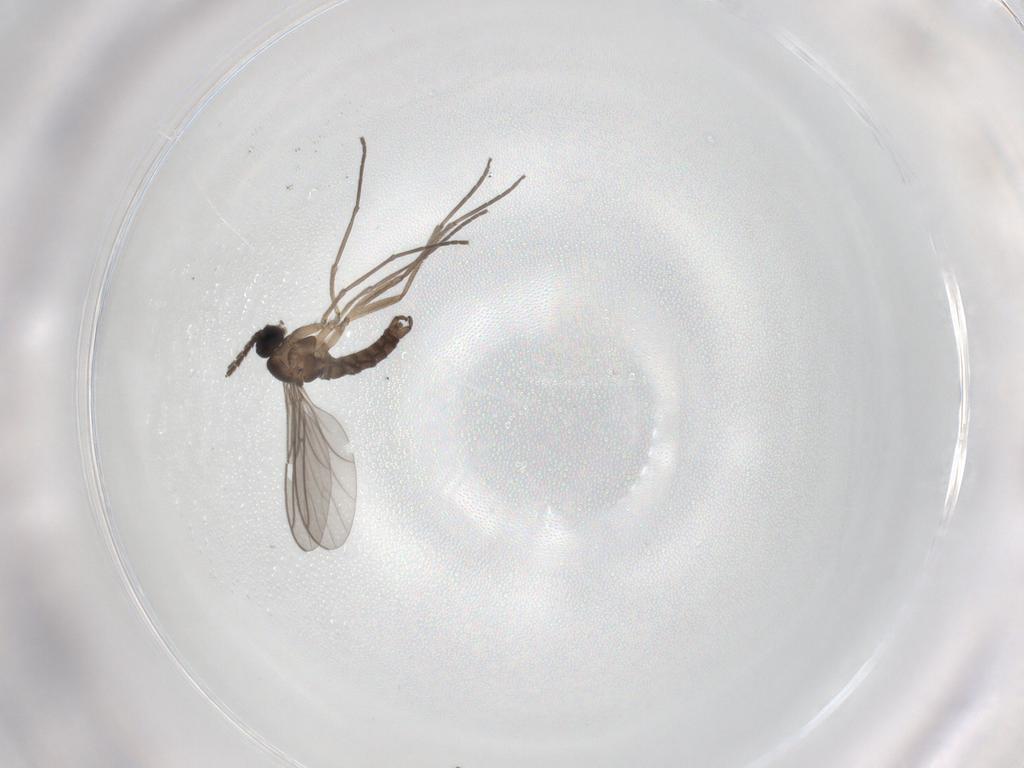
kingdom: Animalia
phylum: Arthropoda
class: Insecta
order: Diptera
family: Sciaridae
